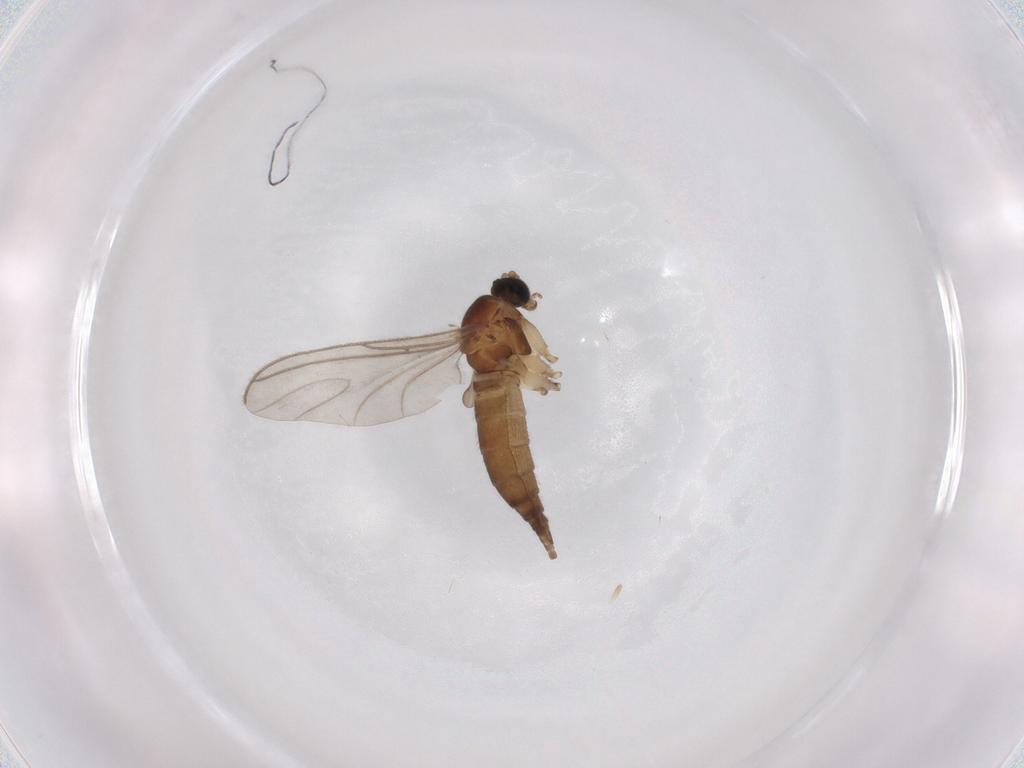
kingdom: Animalia
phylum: Arthropoda
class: Insecta
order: Diptera
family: Sciaridae
